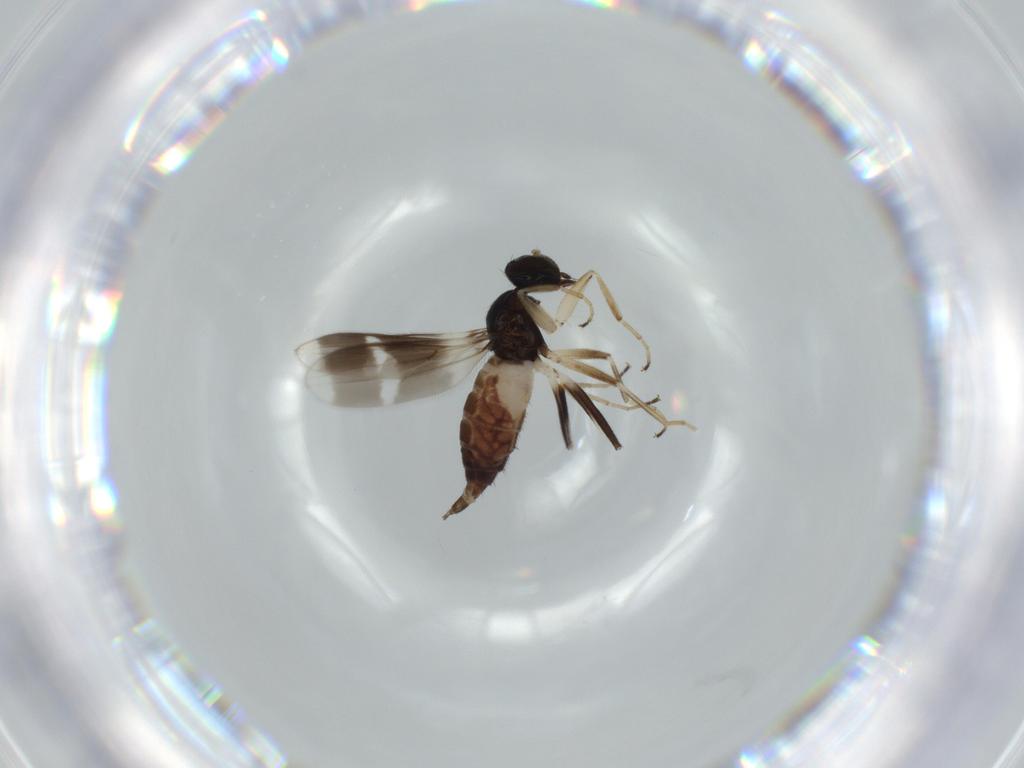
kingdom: Animalia
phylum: Arthropoda
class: Insecta
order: Diptera
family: Hybotidae
